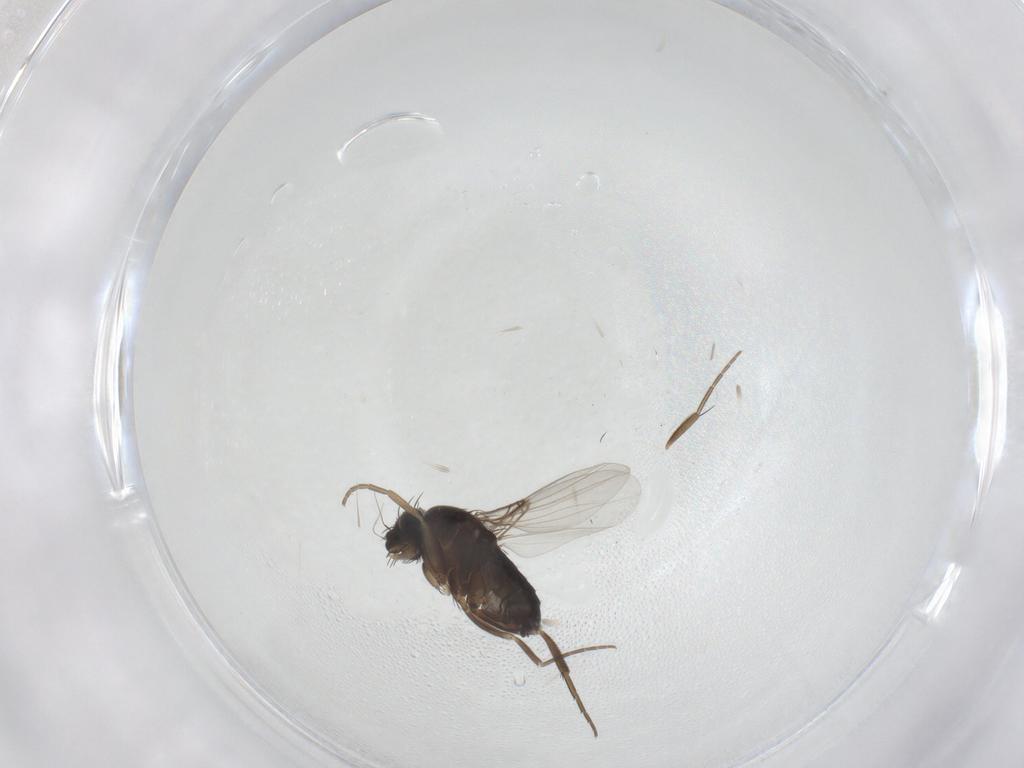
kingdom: Animalia
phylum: Arthropoda
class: Insecta
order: Diptera
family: Phoridae
